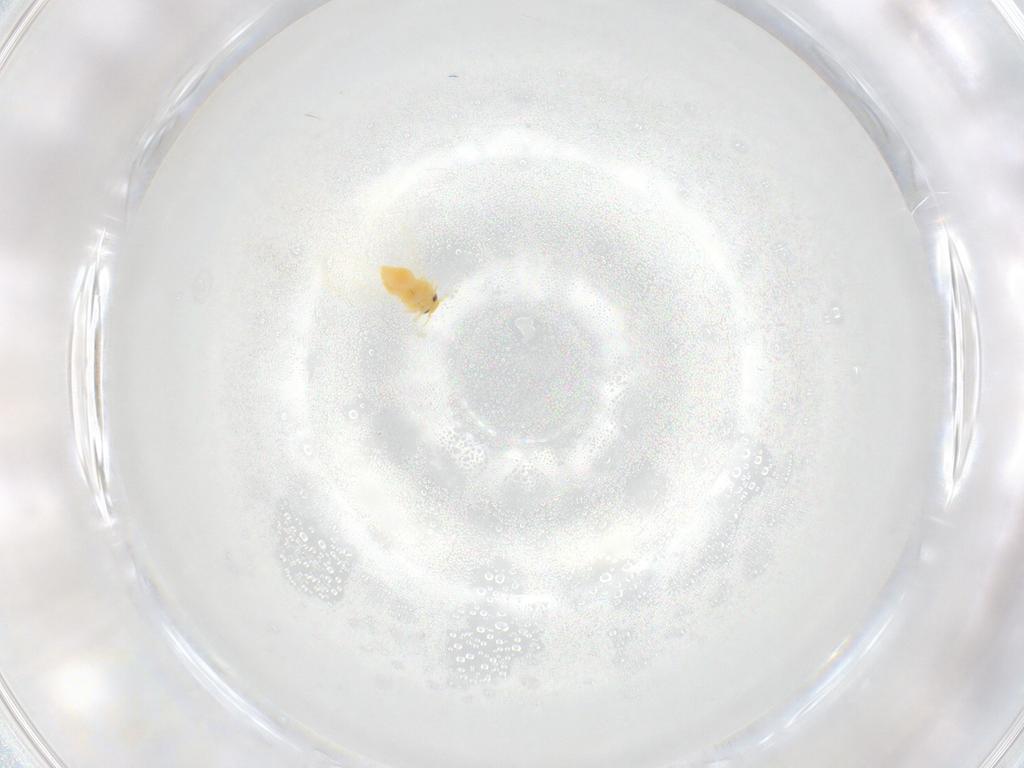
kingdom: Animalia
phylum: Arthropoda
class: Insecta
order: Hemiptera
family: Aleyrodidae
